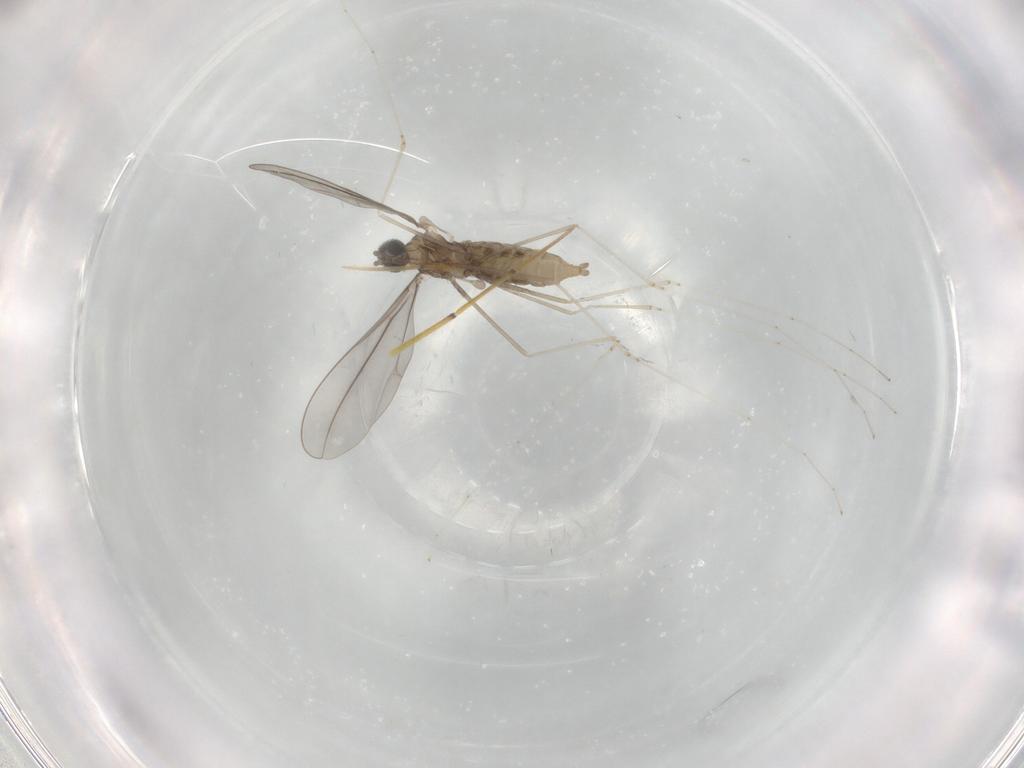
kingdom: Animalia
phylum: Arthropoda
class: Insecta
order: Diptera
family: Cecidomyiidae
